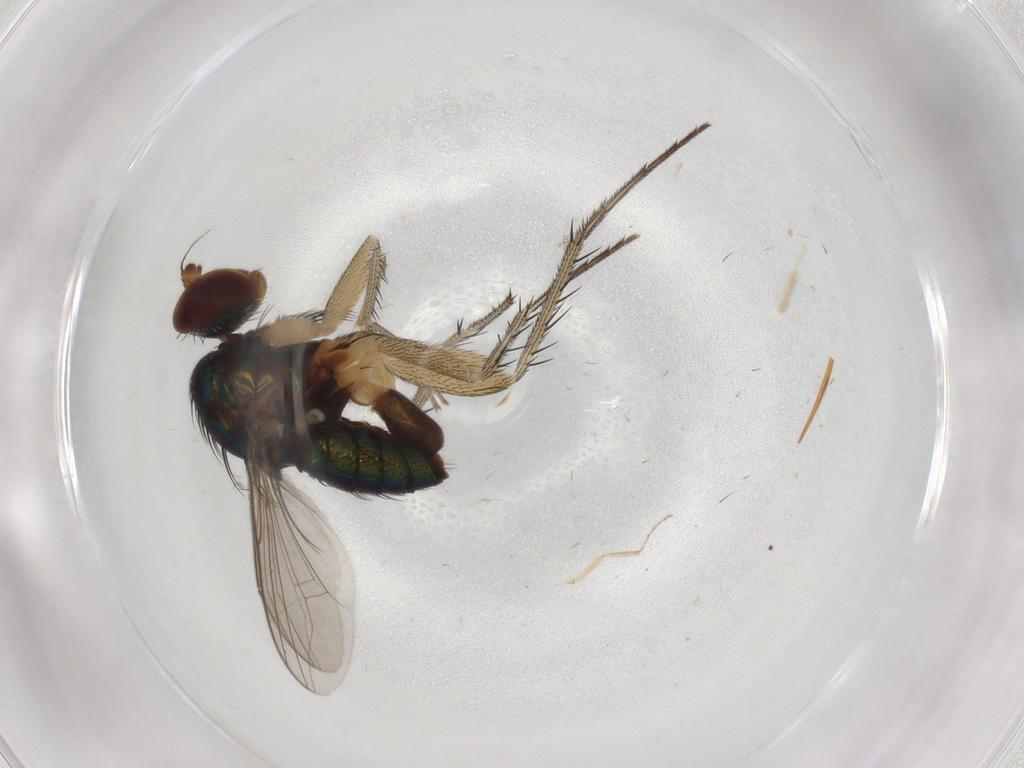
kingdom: Animalia
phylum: Arthropoda
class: Insecta
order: Diptera
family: Dolichopodidae
